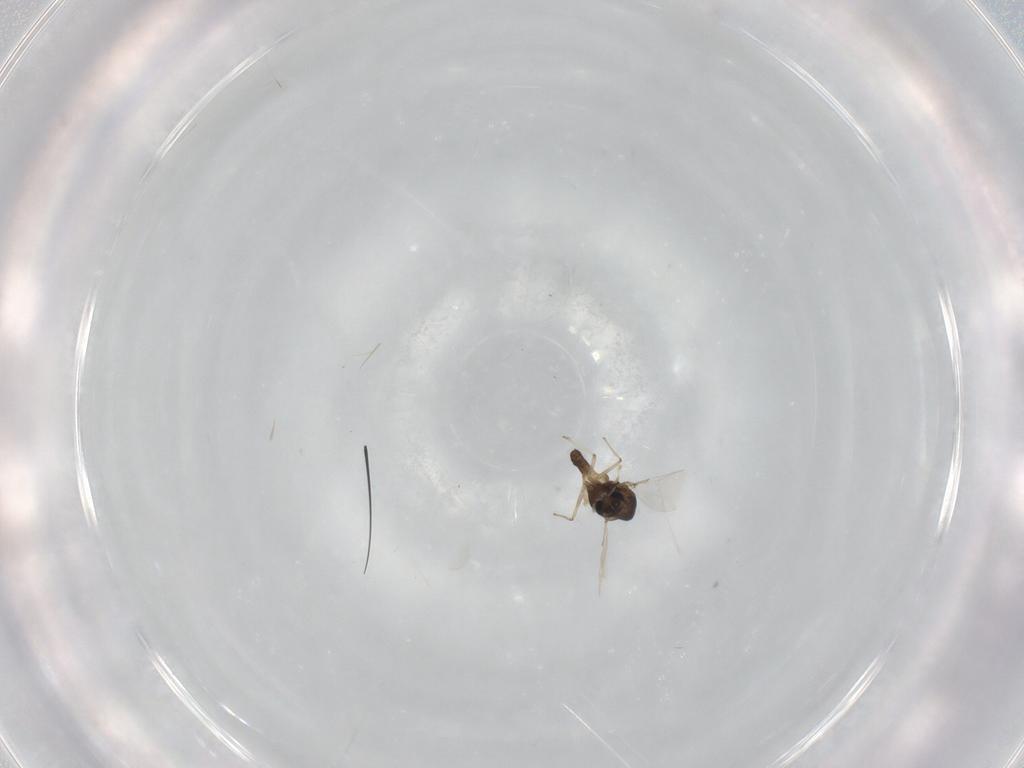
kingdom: Animalia
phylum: Arthropoda
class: Insecta
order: Diptera
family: Chironomidae
